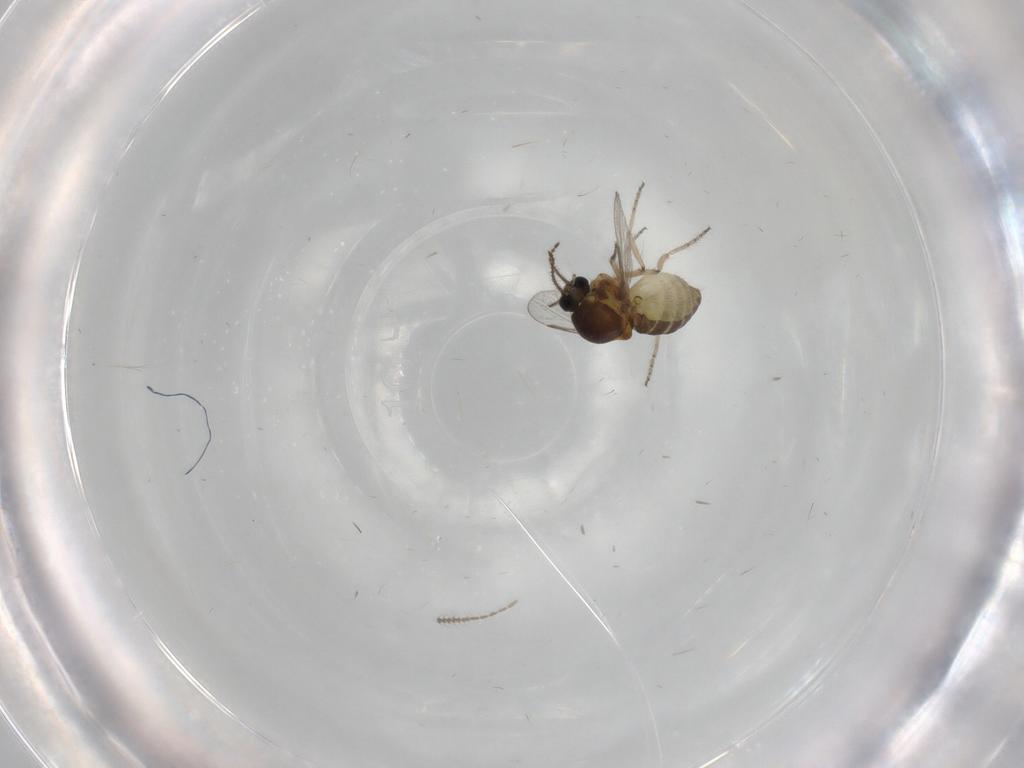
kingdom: Animalia
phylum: Arthropoda
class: Insecta
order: Diptera
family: Ceratopogonidae
